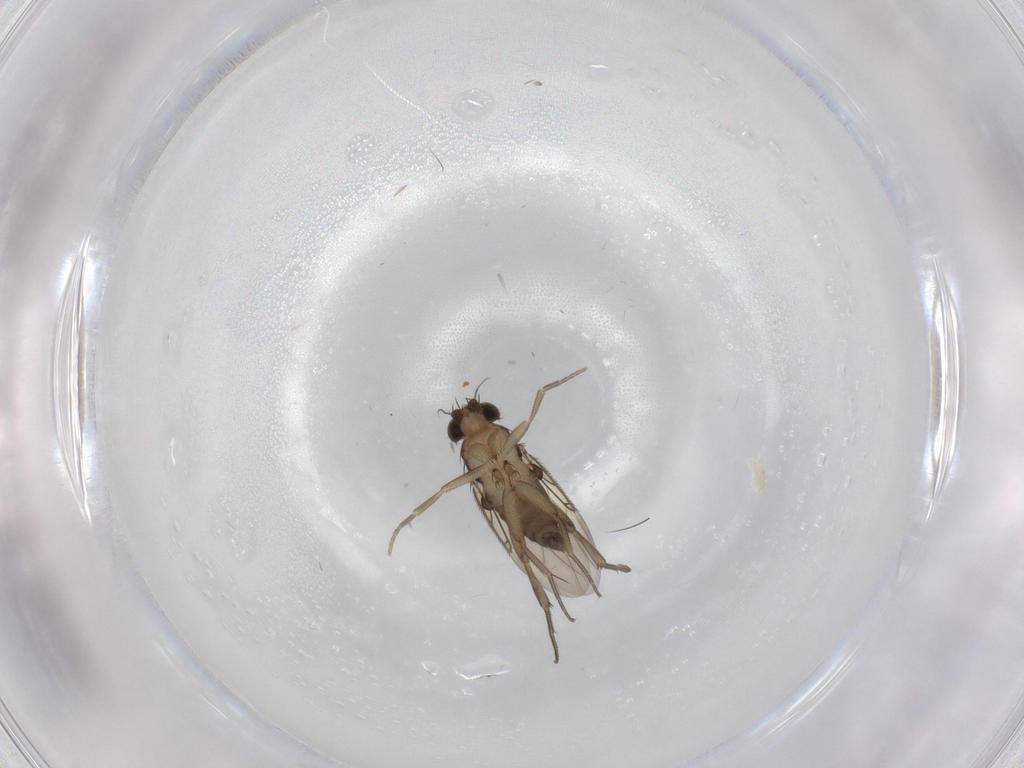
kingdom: Animalia
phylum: Arthropoda
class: Insecta
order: Diptera
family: Phoridae
